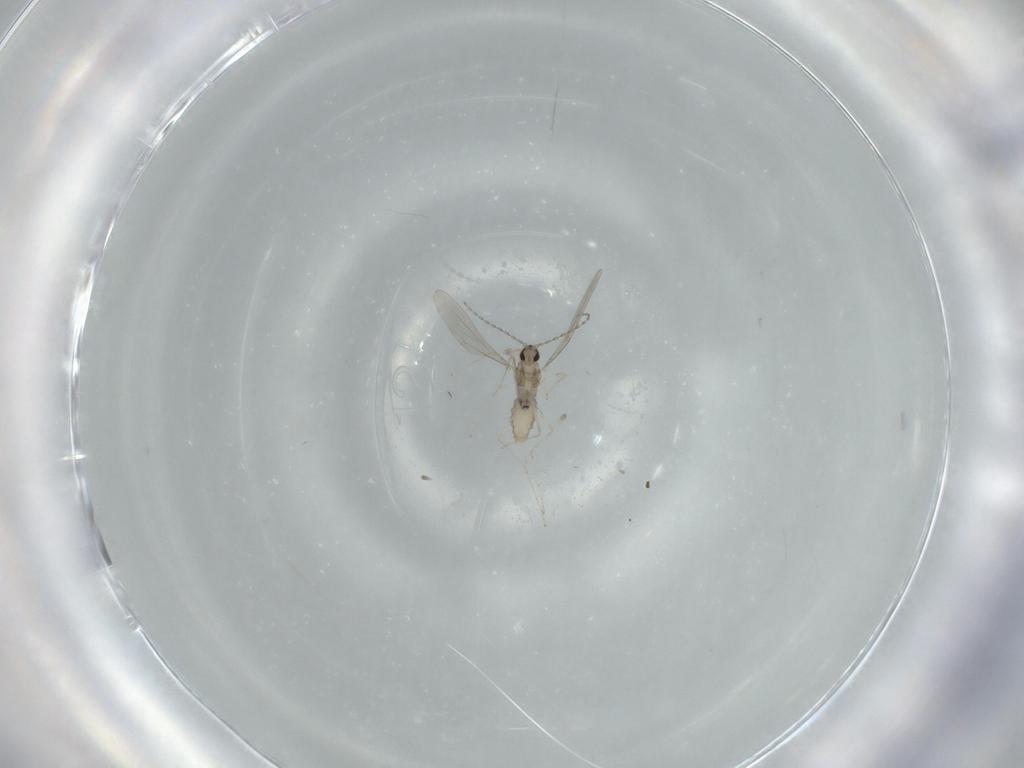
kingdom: Animalia
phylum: Arthropoda
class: Insecta
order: Diptera
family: Cecidomyiidae
